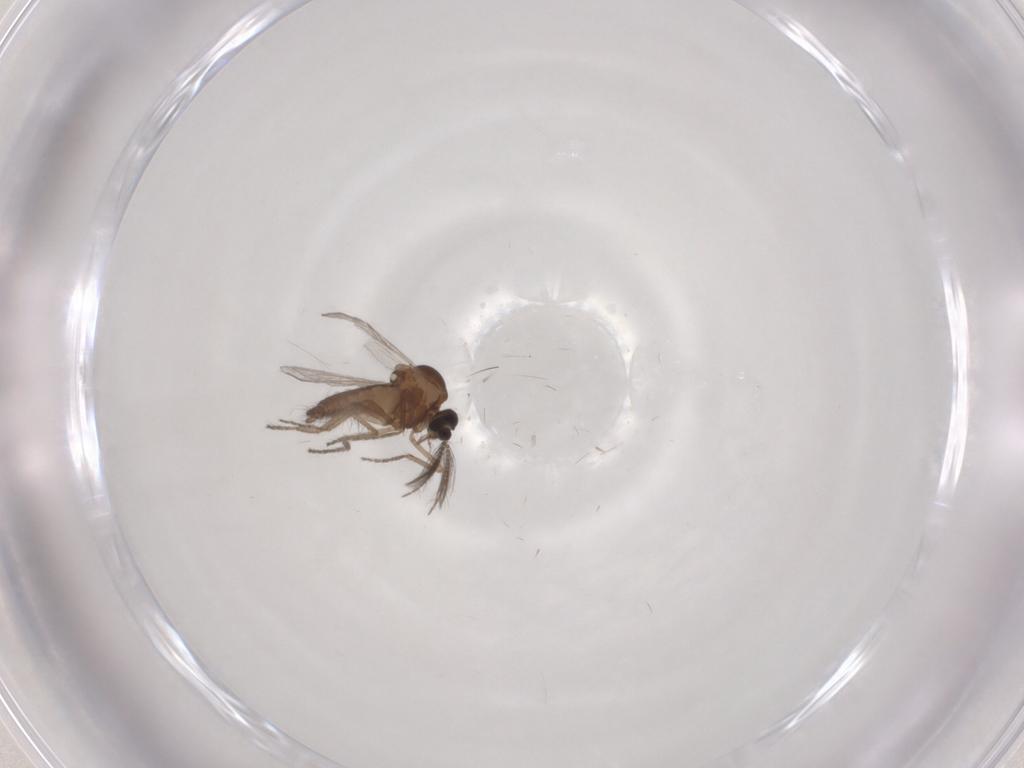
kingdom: Animalia
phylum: Arthropoda
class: Insecta
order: Diptera
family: Ceratopogonidae
